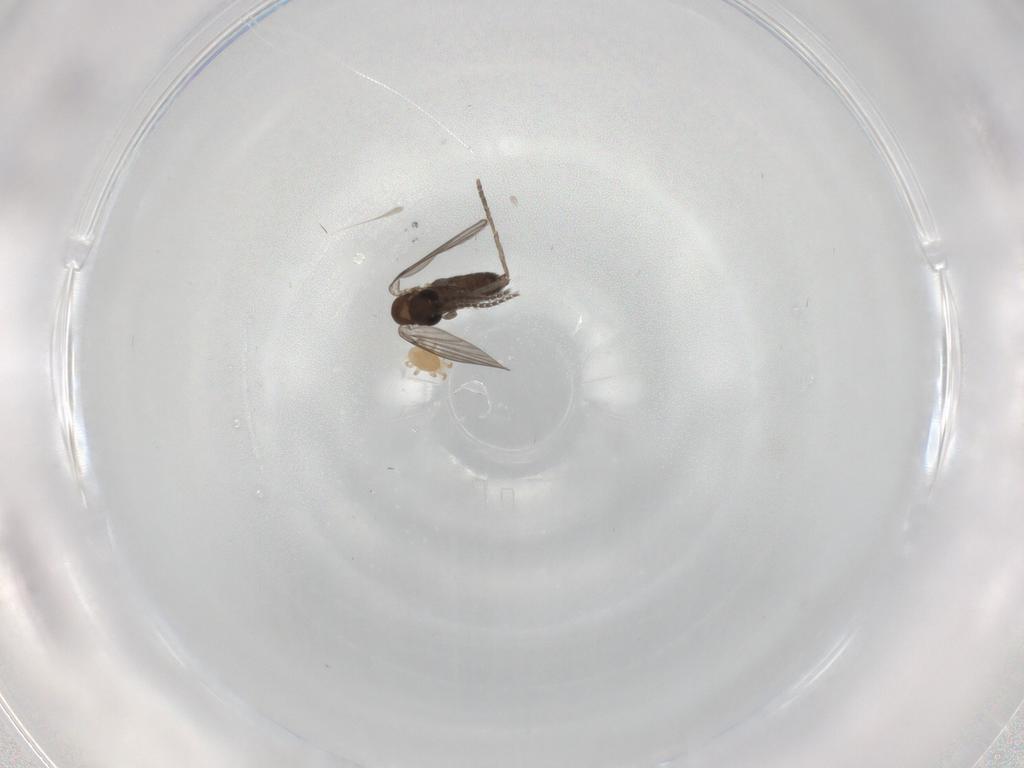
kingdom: Animalia
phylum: Arthropoda
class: Insecta
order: Diptera
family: Phoridae
